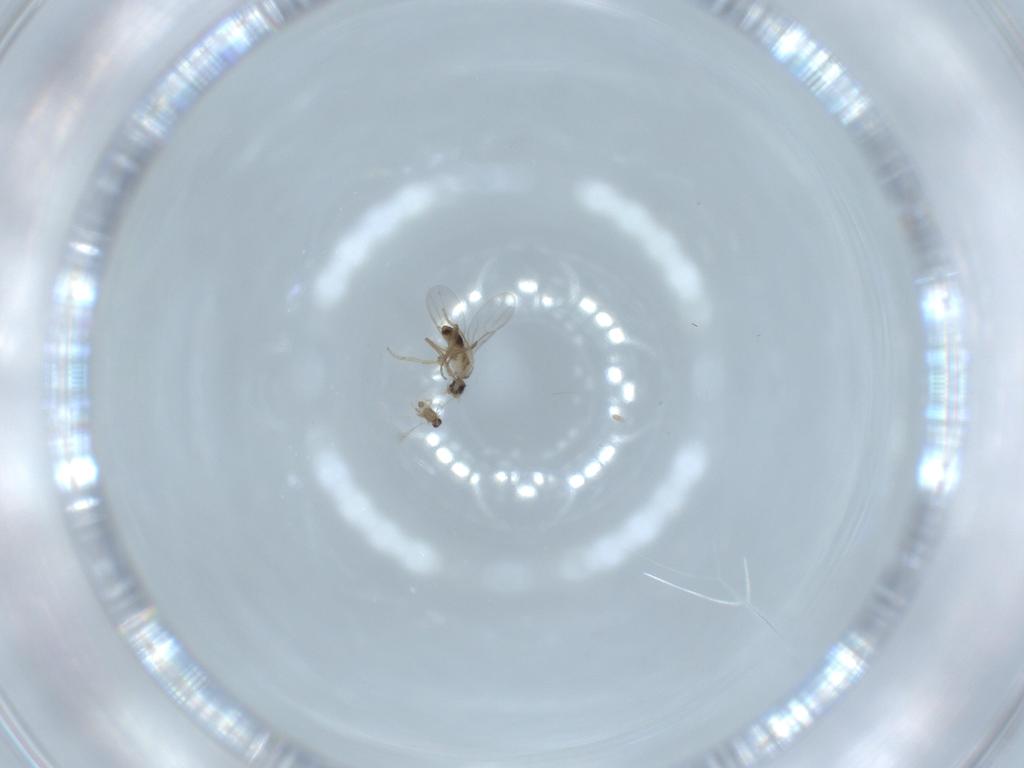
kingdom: Animalia
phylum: Arthropoda
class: Insecta
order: Diptera
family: Phoridae
